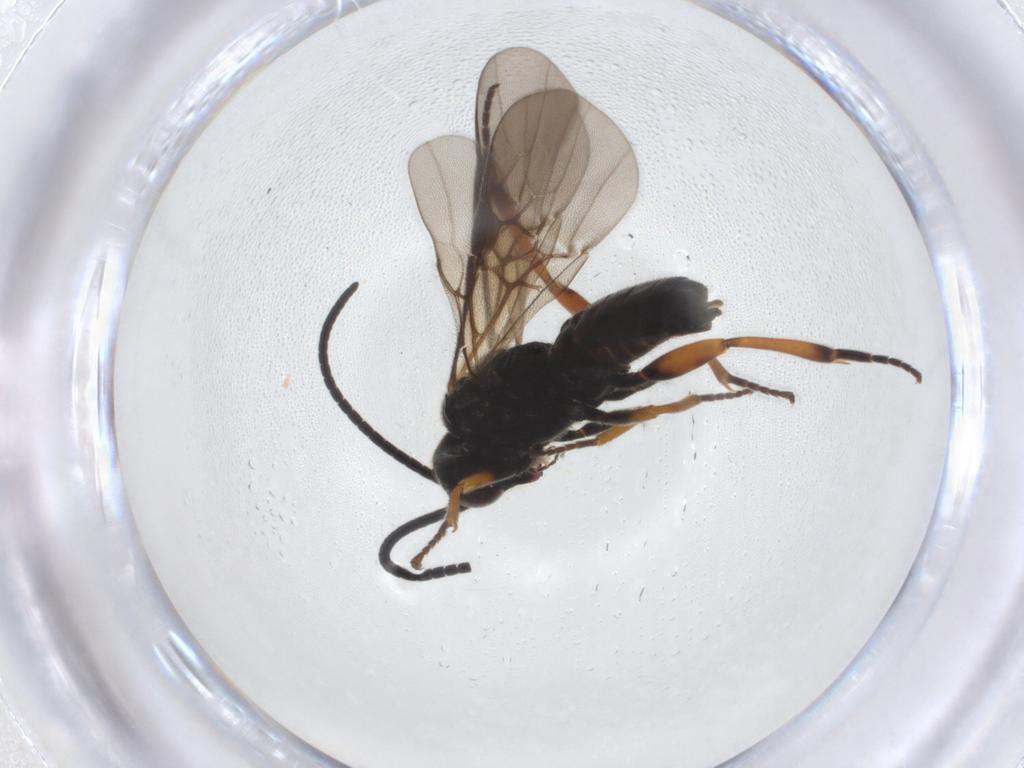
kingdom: Animalia
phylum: Arthropoda
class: Insecta
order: Hymenoptera
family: Braconidae
